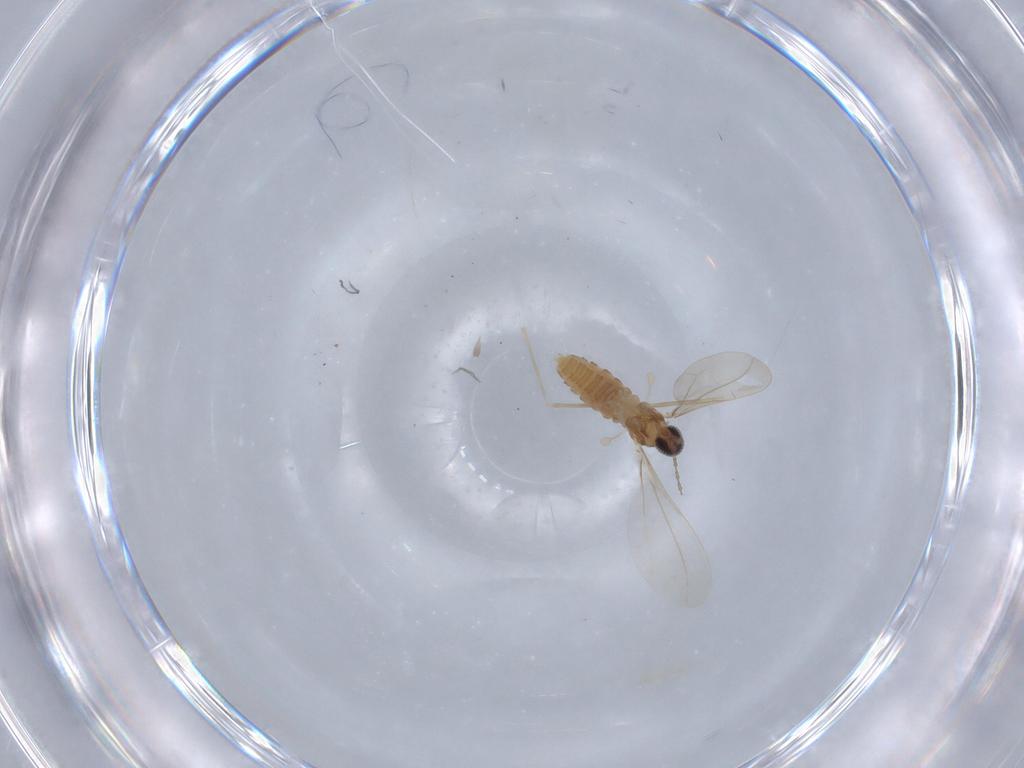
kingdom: Animalia
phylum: Arthropoda
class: Insecta
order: Diptera
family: Cecidomyiidae
